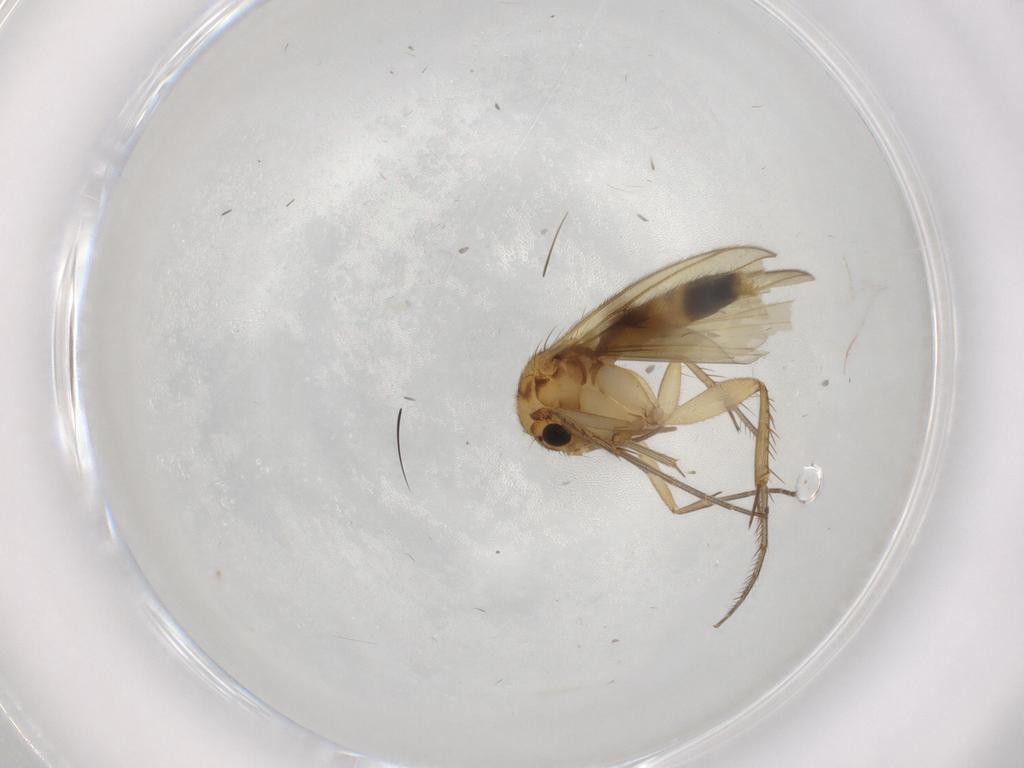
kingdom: Animalia
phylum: Arthropoda
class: Insecta
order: Diptera
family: Mycetophilidae
